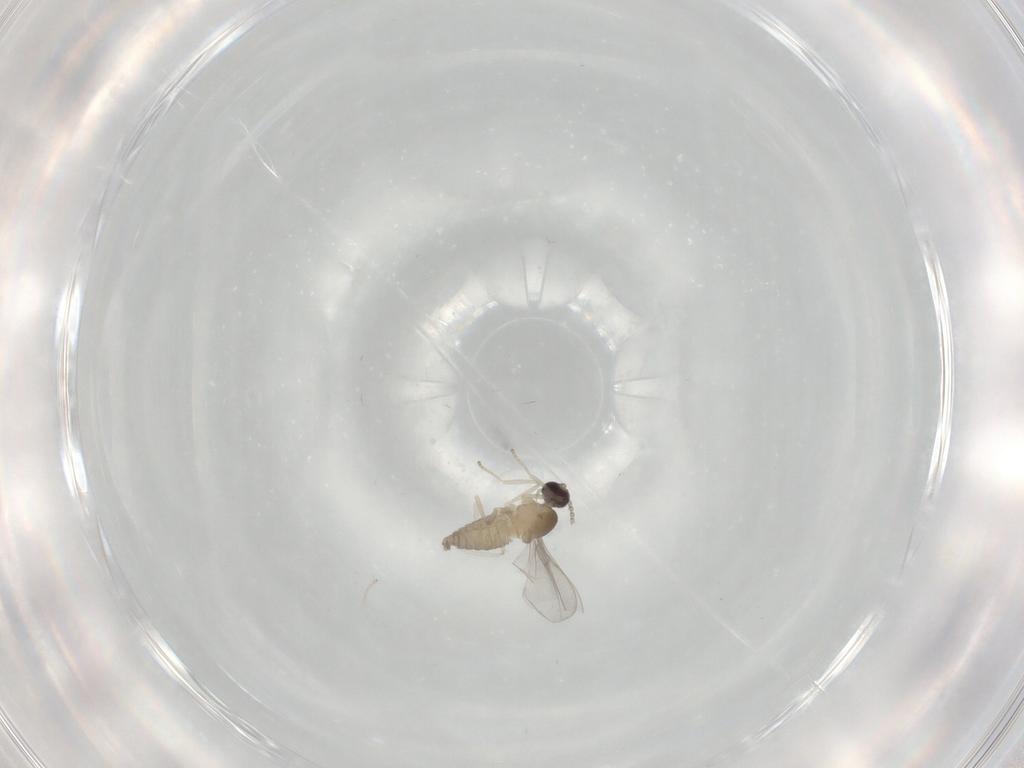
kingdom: Animalia
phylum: Arthropoda
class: Insecta
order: Diptera
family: Cecidomyiidae
